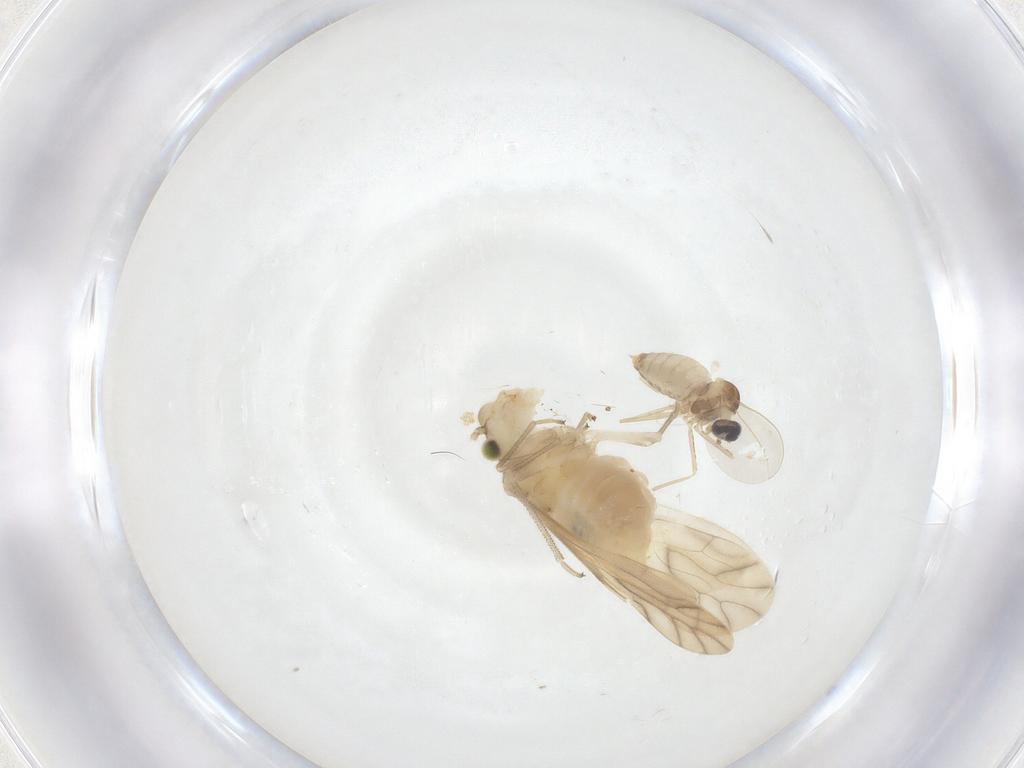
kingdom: Animalia
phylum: Arthropoda
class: Insecta
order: Psocodea
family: Caeciliusidae
